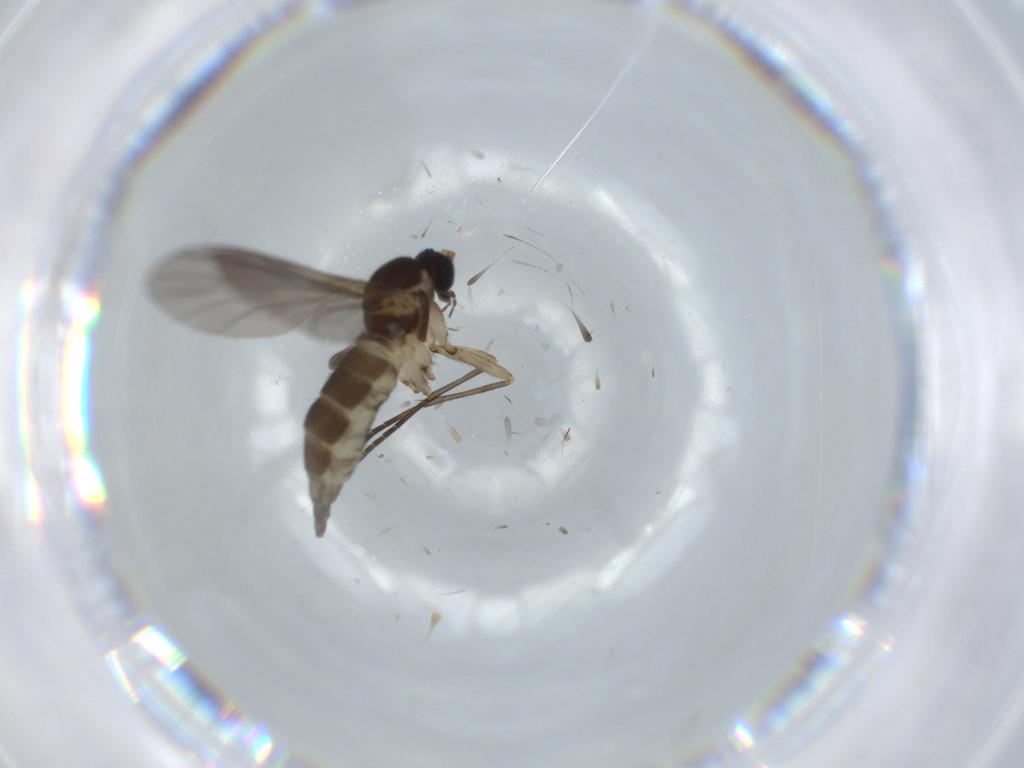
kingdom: Animalia
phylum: Arthropoda
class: Insecta
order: Diptera
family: Sciaridae
